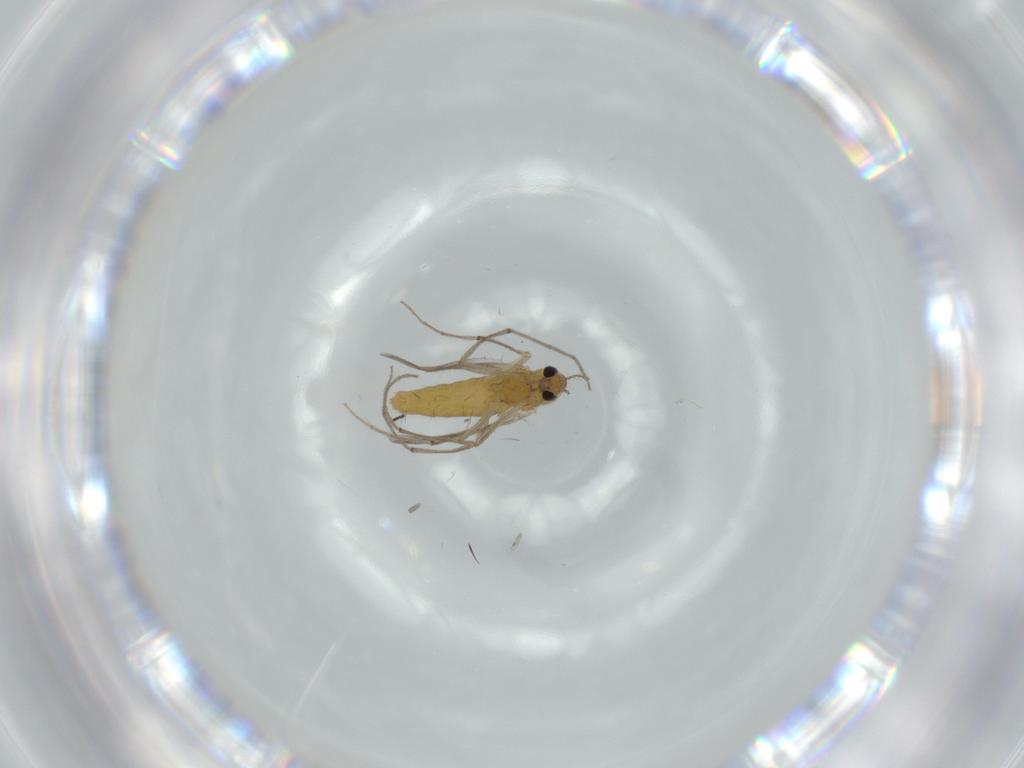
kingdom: Animalia
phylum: Arthropoda
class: Insecta
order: Diptera
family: Chironomidae
